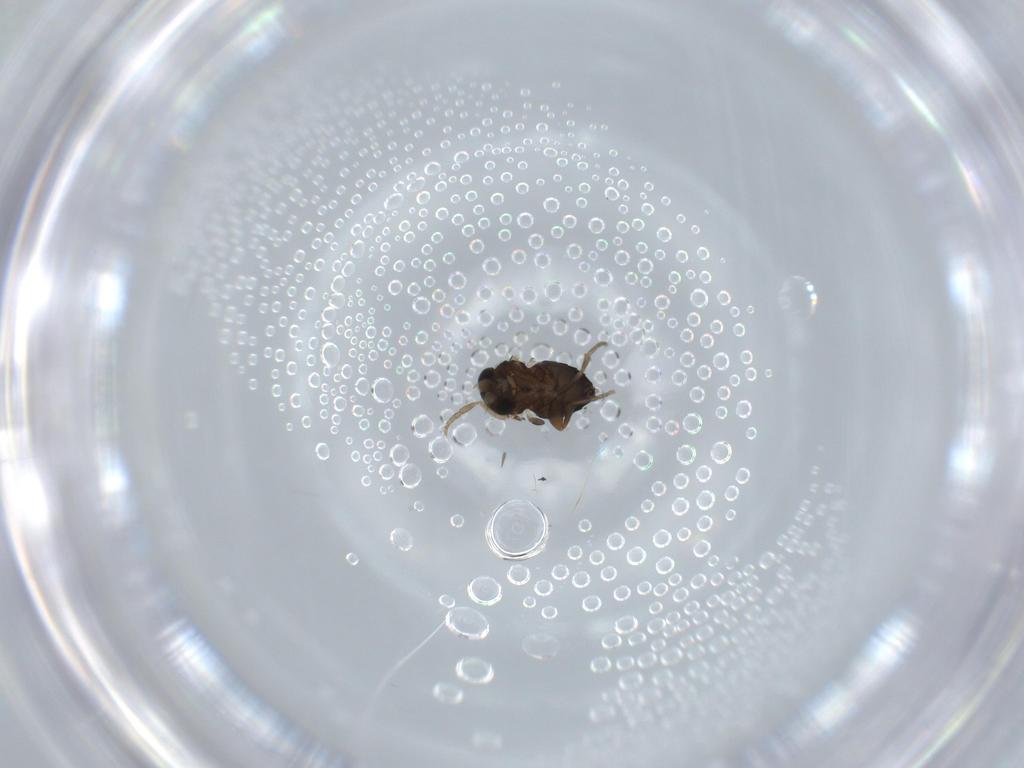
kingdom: Animalia
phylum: Arthropoda
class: Insecta
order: Diptera
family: Phoridae
